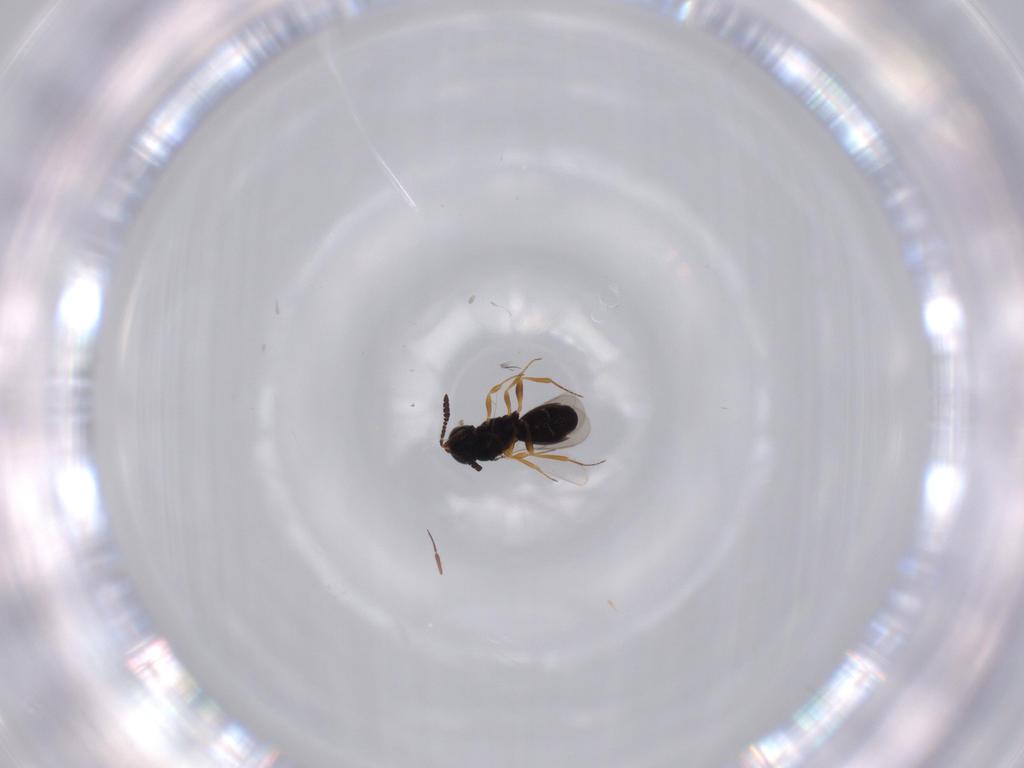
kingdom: Animalia
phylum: Arthropoda
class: Insecta
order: Hymenoptera
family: Scelionidae
